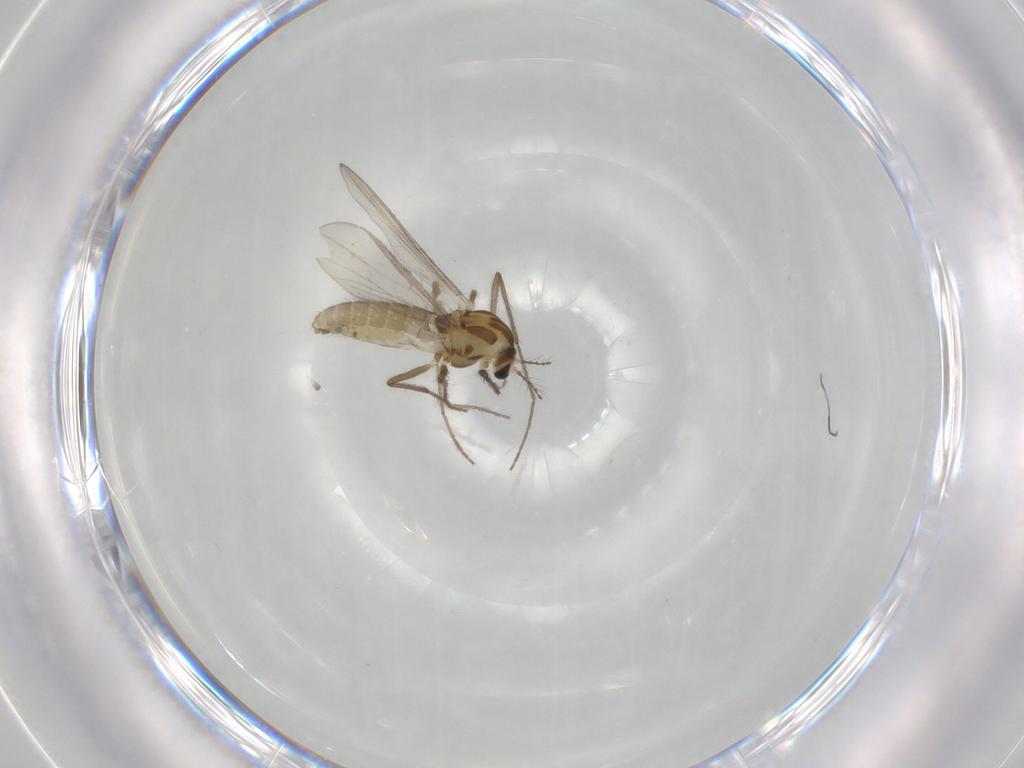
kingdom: Animalia
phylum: Arthropoda
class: Insecta
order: Diptera
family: Chironomidae
